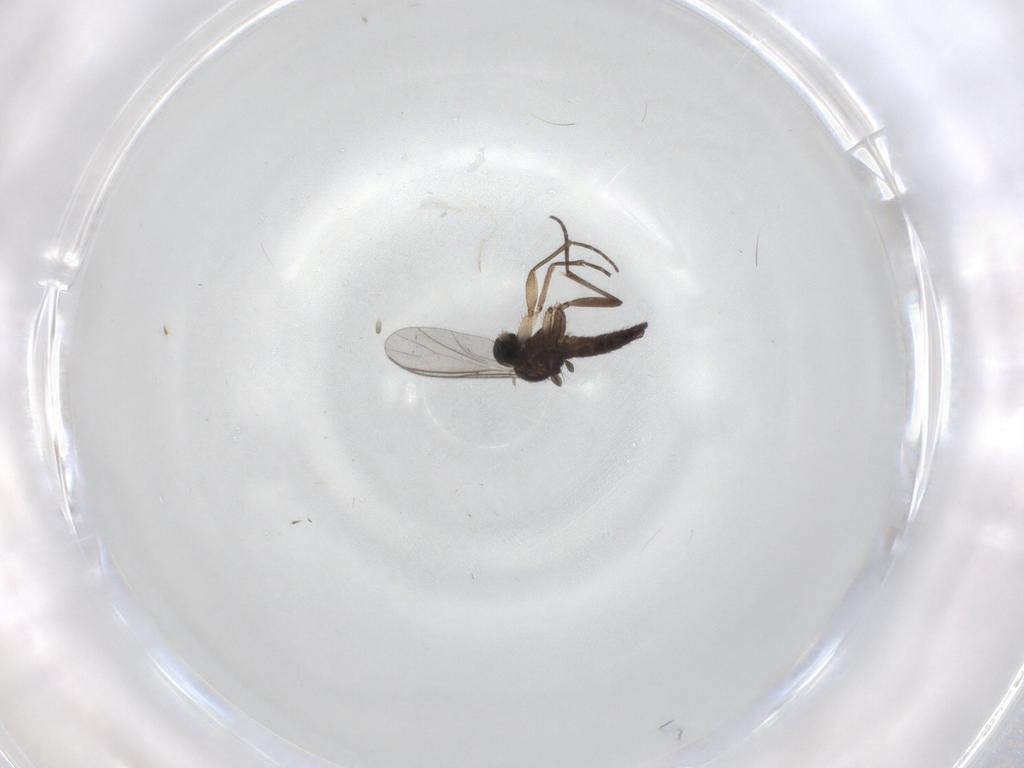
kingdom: Animalia
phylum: Arthropoda
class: Insecta
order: Diptera
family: Sciaridae
